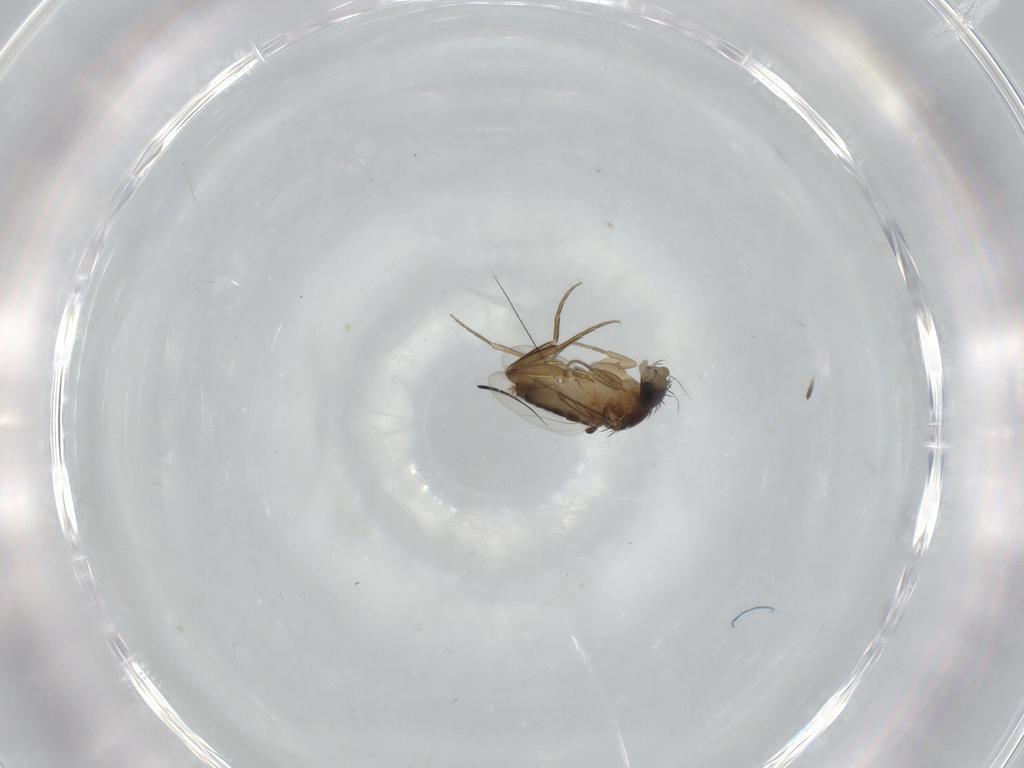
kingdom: Animalia
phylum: Arthropoda
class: Insecta
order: Diptera
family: Phoridae
